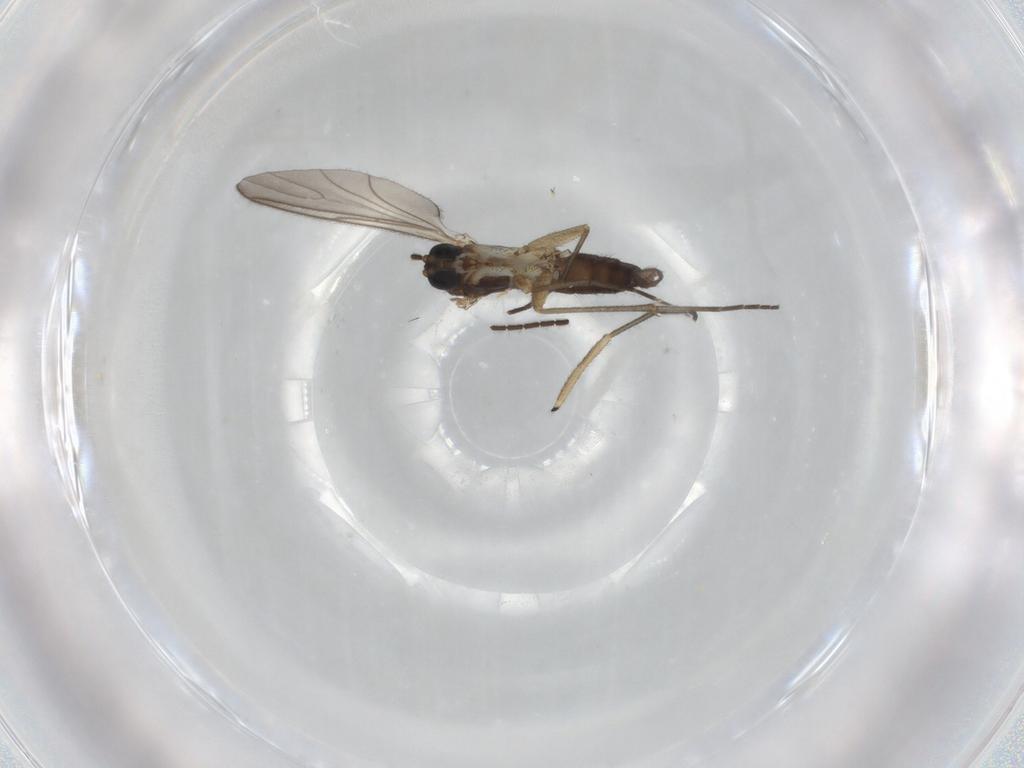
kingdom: Animalia
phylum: Arthropoda
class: Insecta
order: Diptera
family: Sciaridae
